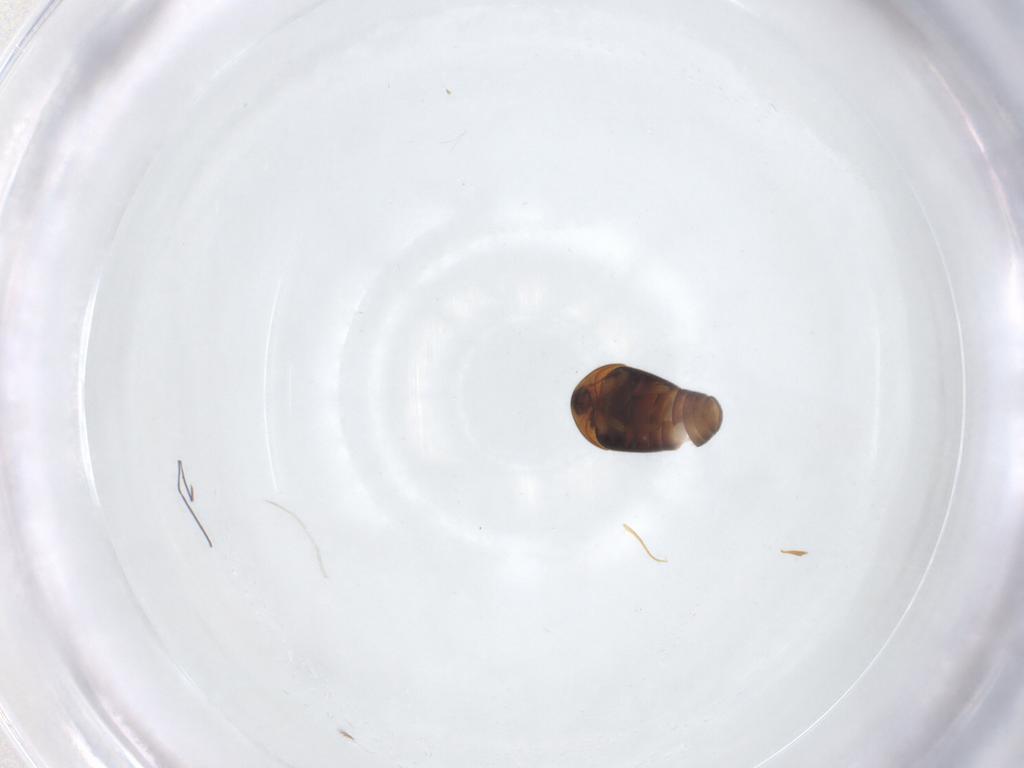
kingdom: Animalia
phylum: Arthropoda
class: Insecta
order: Coleoptera
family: Corylophidae
